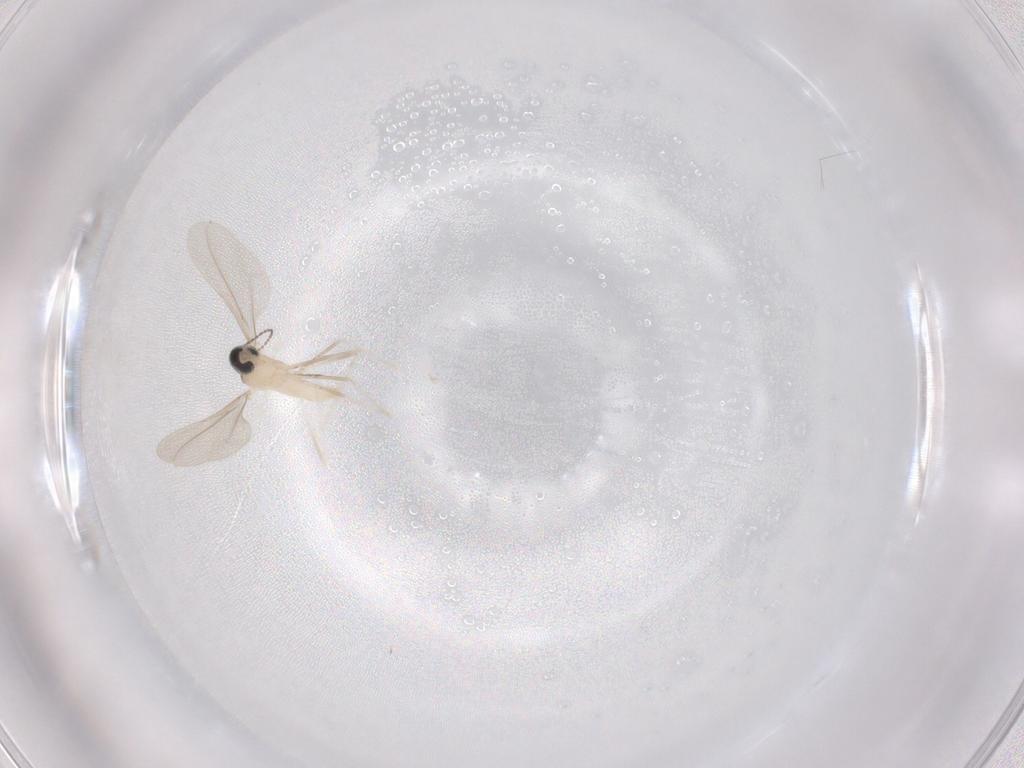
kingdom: Animalia
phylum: Arthropoda
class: Insecta
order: Diptera
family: Cecidomyiidae
